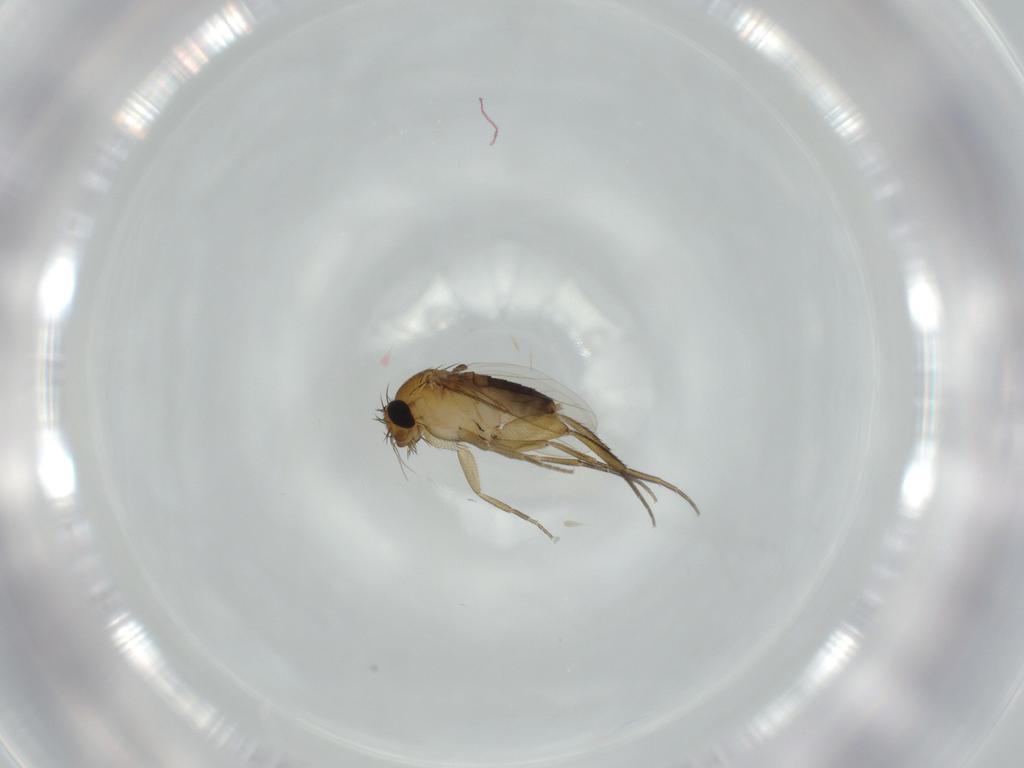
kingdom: Animalia
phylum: Arthropoda
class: Insecta
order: Diptera
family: Phoridae
